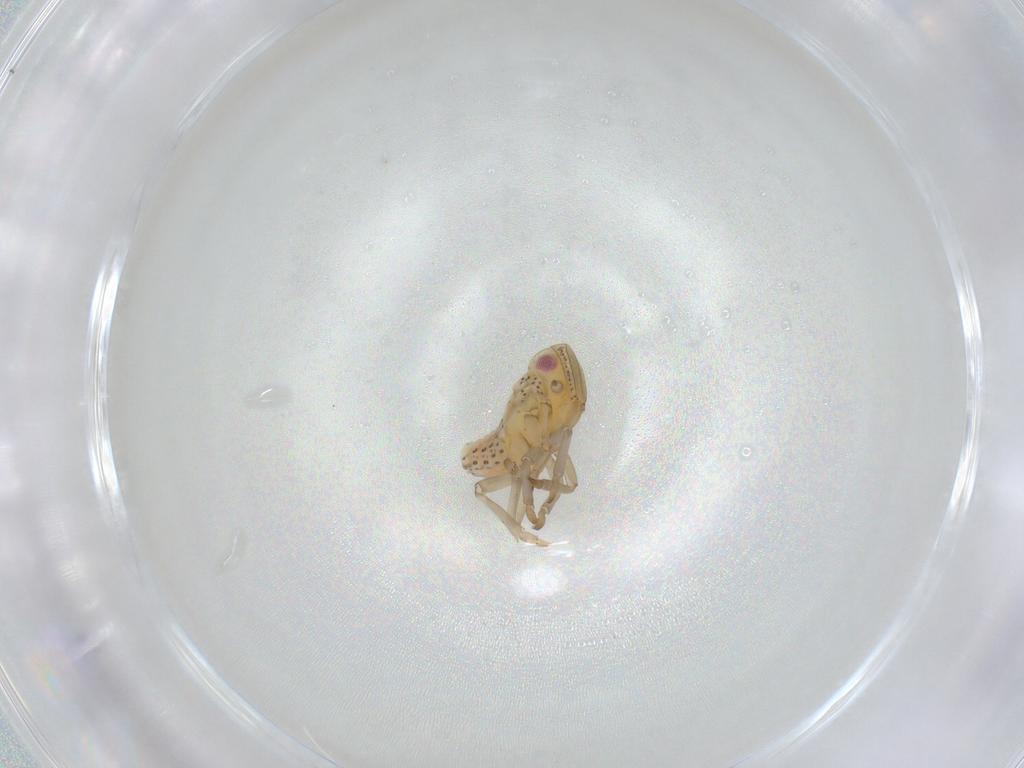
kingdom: Animalia
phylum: Arthropoda
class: Insecta
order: Hemiptera
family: Tropiduchidae
